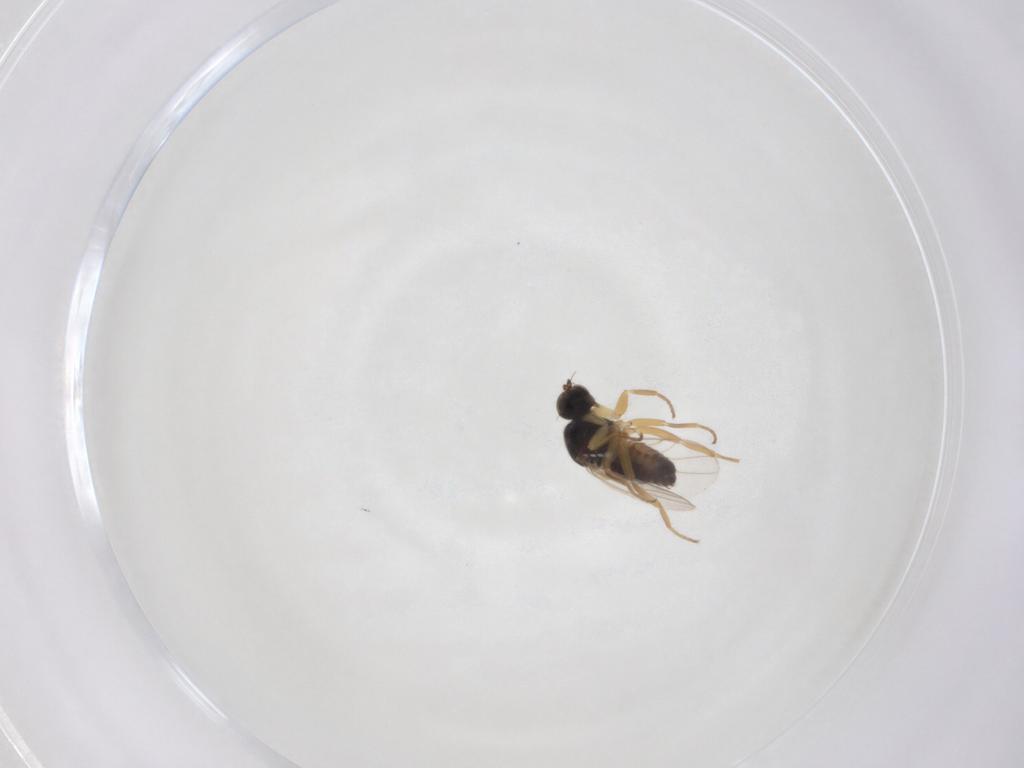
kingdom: Animalia
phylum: Arthropoda
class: Insecta
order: Diptera
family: Hybotidae
